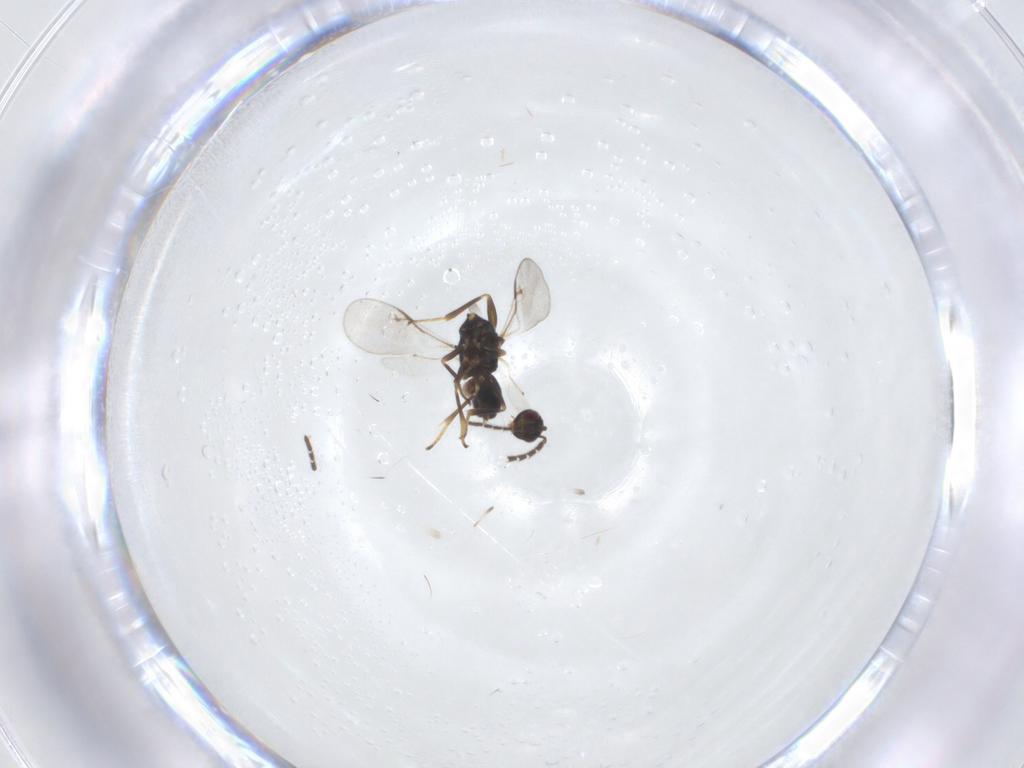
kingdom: Animalia
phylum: Arthropoda
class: Insecta
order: Hymenoptera
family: Encyrtidae
